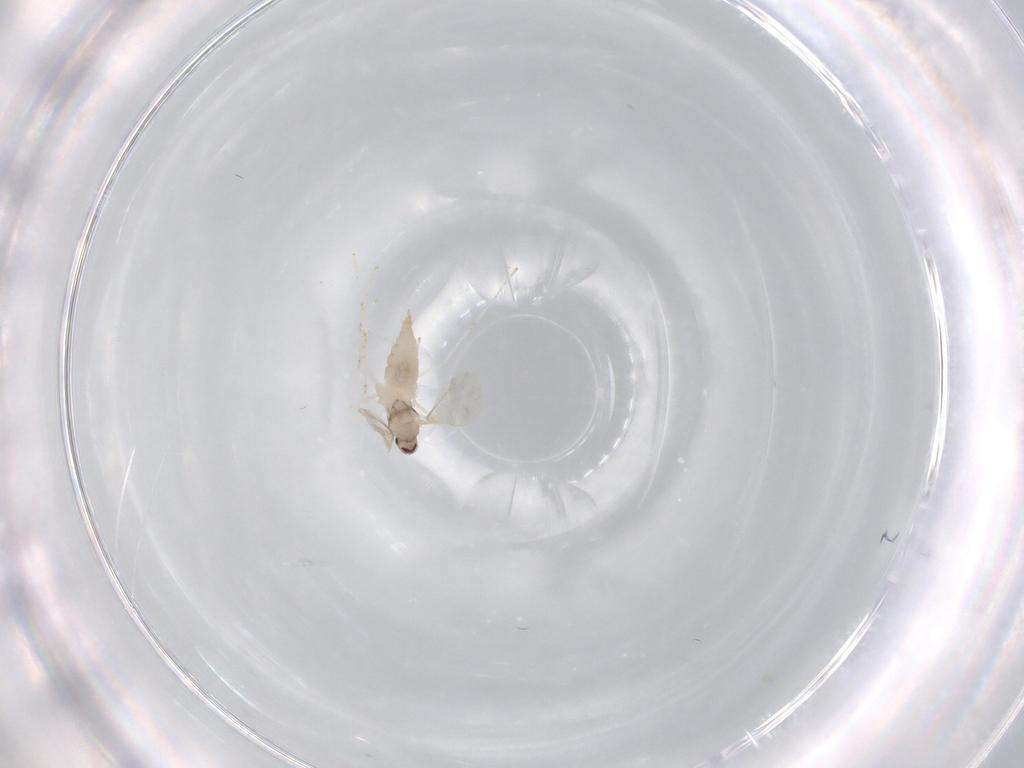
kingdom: Animalia
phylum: Arthropoda
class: Insecta
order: Diptera
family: Cecidomyiidae
